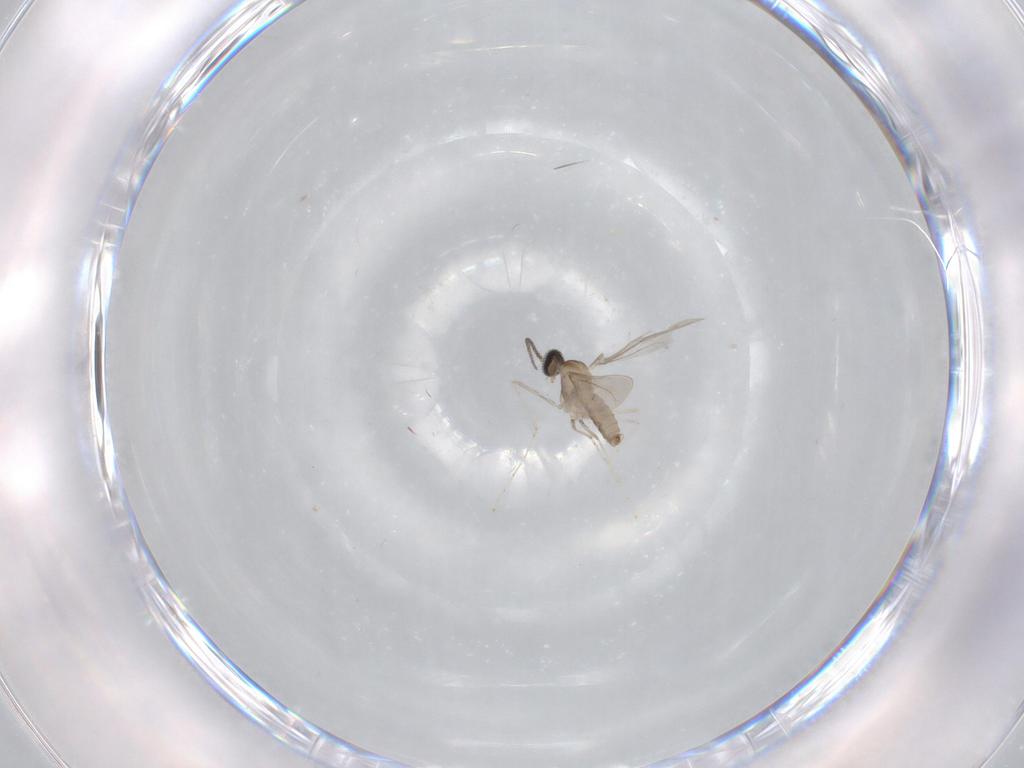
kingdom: Animalia
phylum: Arthropoda
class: Insecta
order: Diptera
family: Cecidomyiidae
